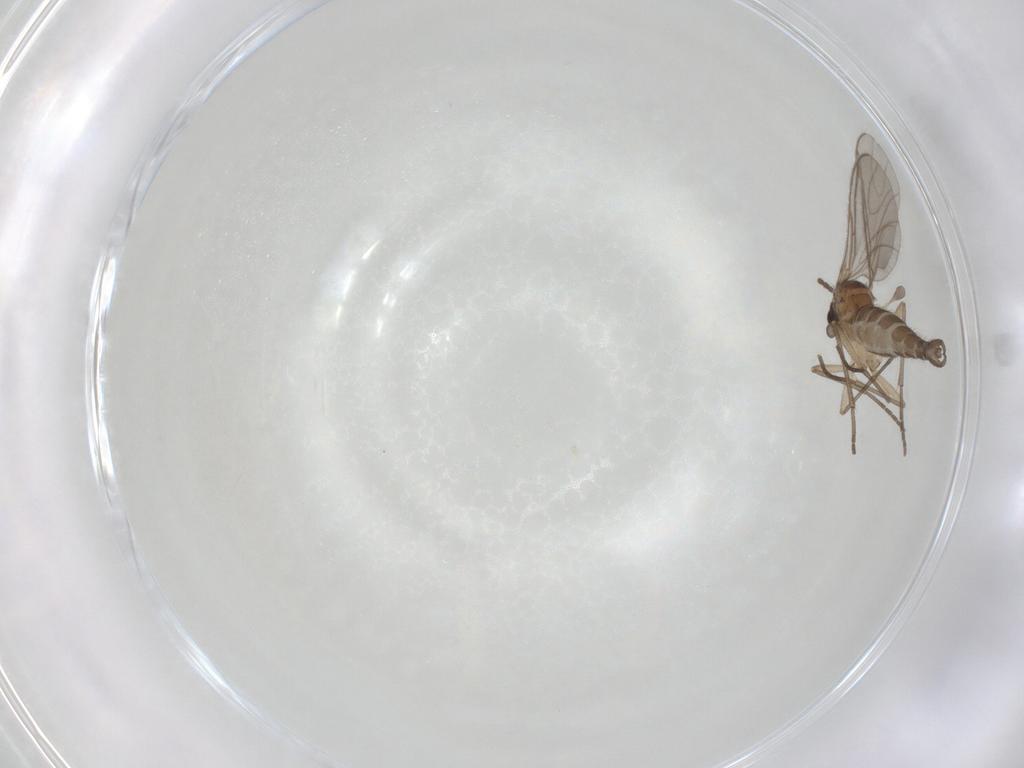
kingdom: Animalia
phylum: Arthropoda
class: Insecta
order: Diptera
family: Sciaridae
